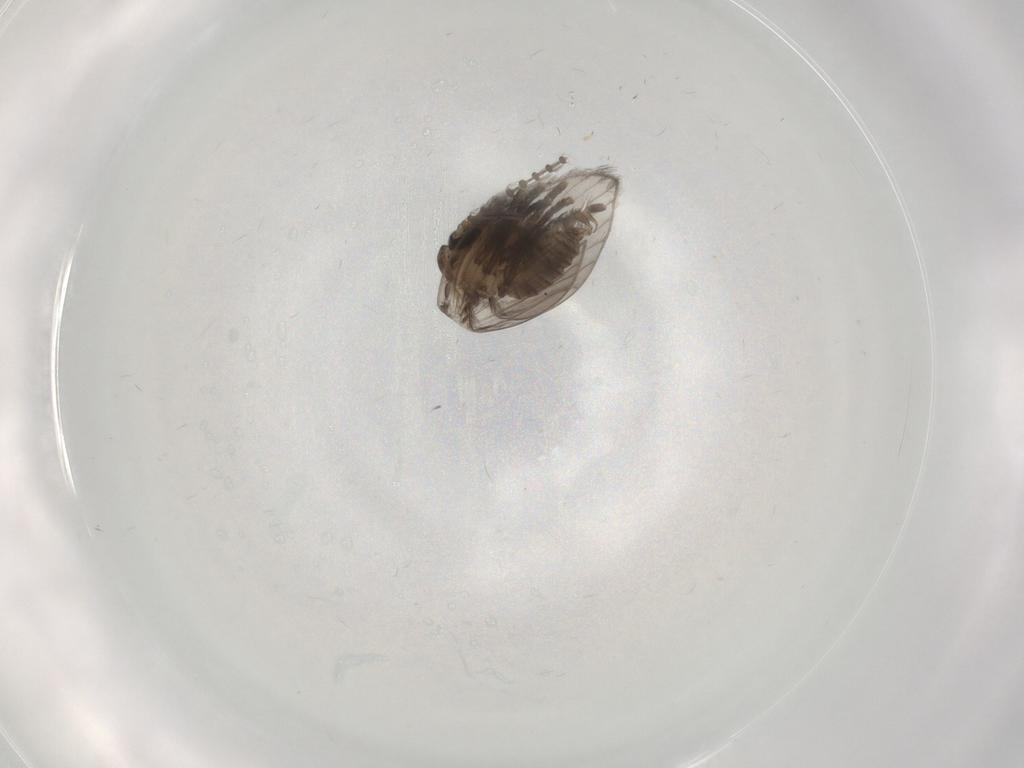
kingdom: Animalia
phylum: Arthropoda
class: Insecta
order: Diptera
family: Psychodidae
